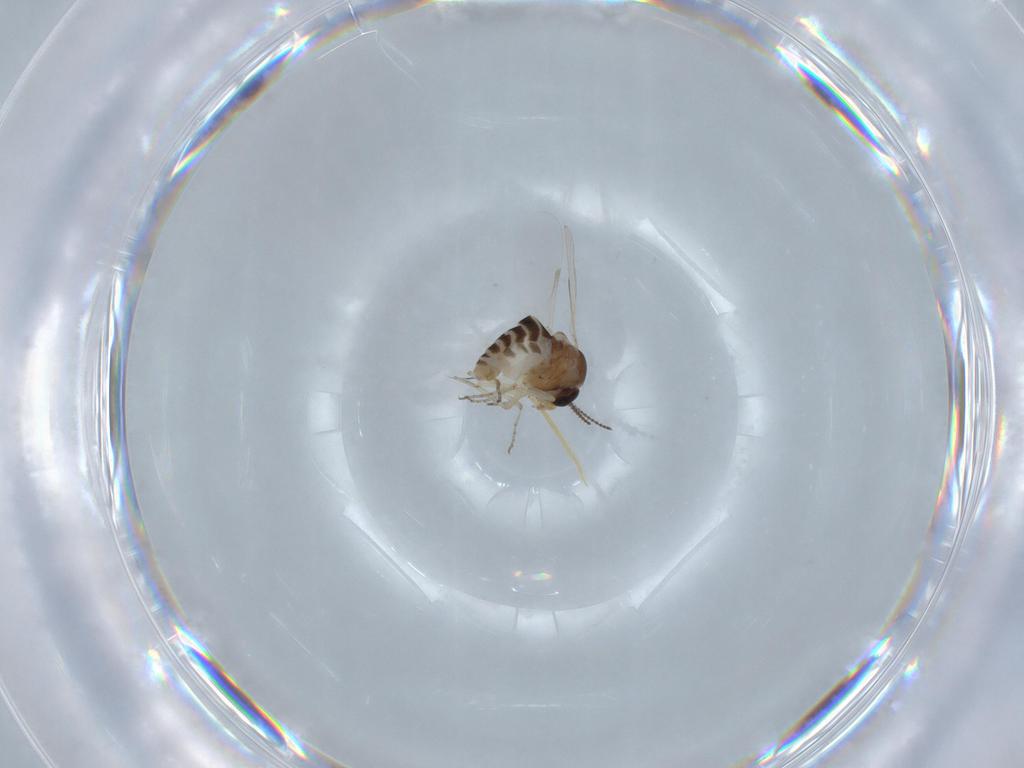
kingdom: Animalia
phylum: Arthropoda
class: Insecta
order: Diptera
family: Ceratopogonidae
